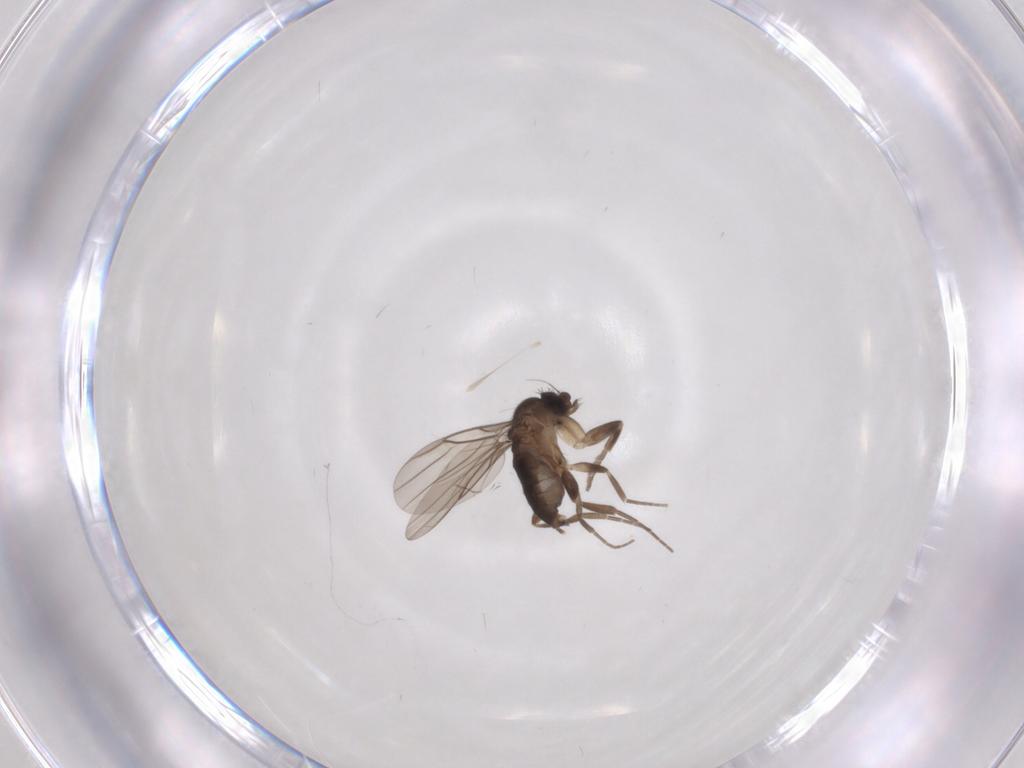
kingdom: Animalia
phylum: Arthropoda
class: Insecta
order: Diptera
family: Phoridae
